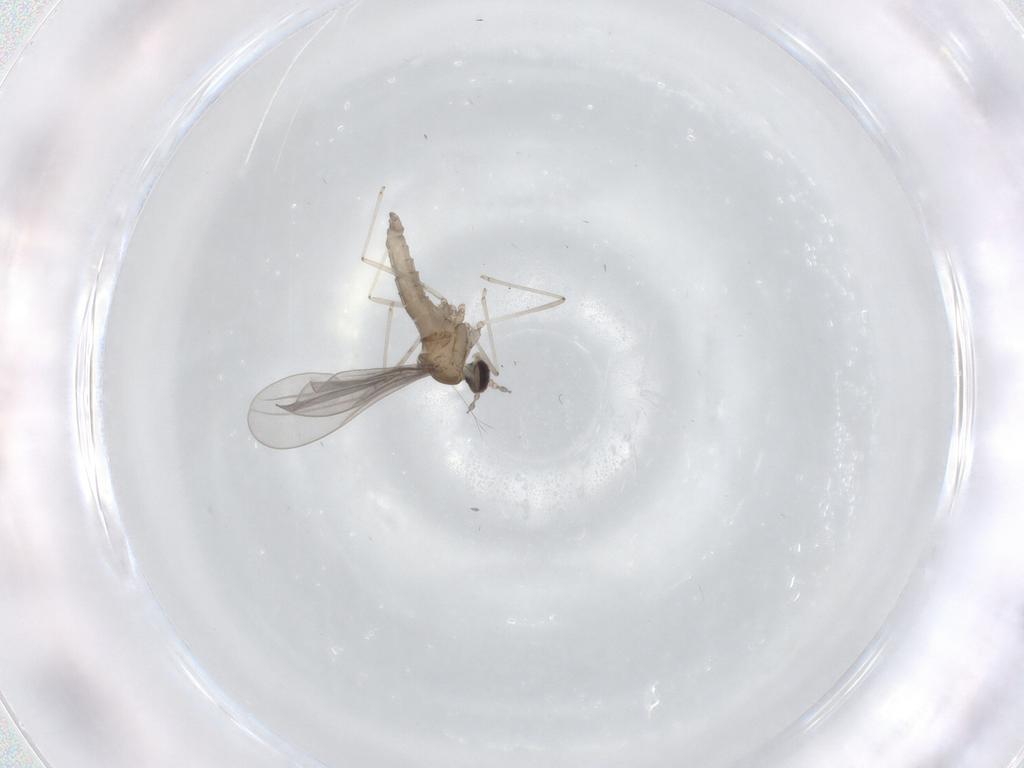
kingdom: Animalia
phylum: Arthropoda
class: Insecta
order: Diptera
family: Cecidomyiidae
